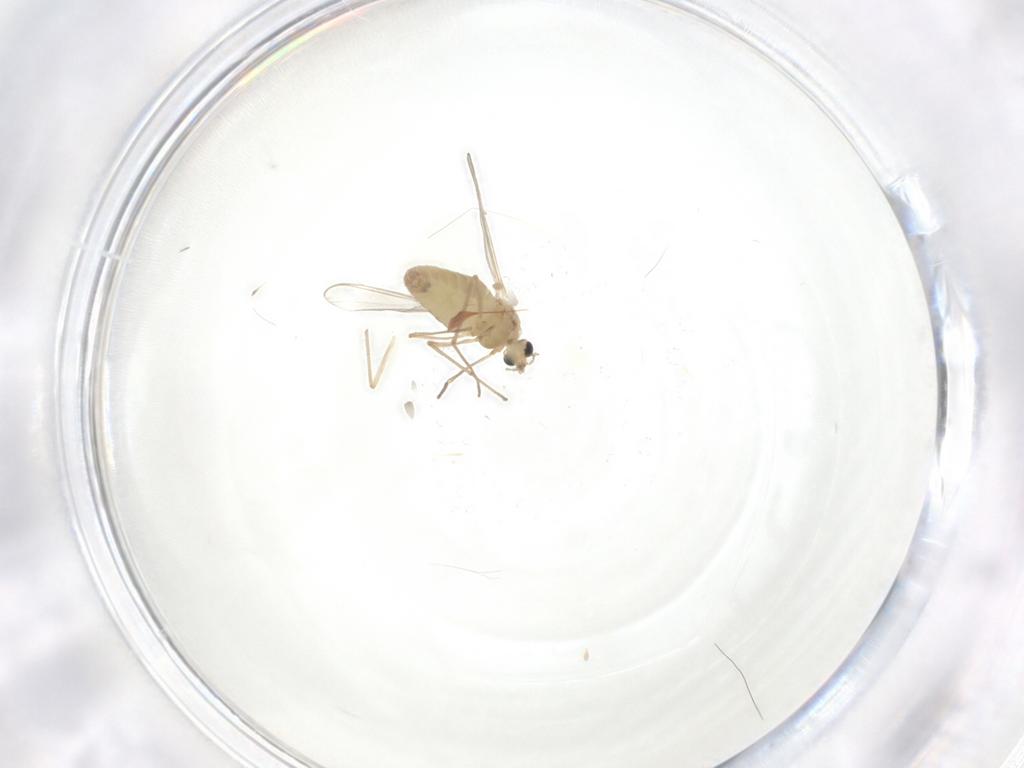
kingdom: Animalia
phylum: Arthropoda
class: Insecta
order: Diptera
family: Chironomidae
